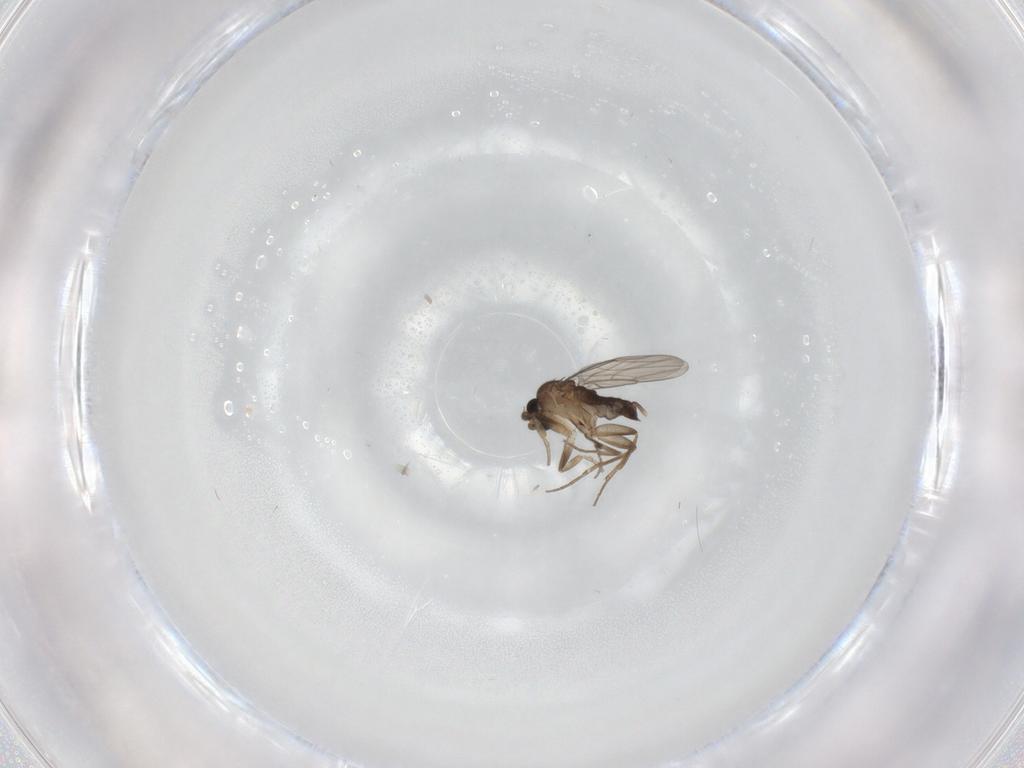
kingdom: Animalia
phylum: Arthropoda
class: Insecta
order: Diptera
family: Phoridae
